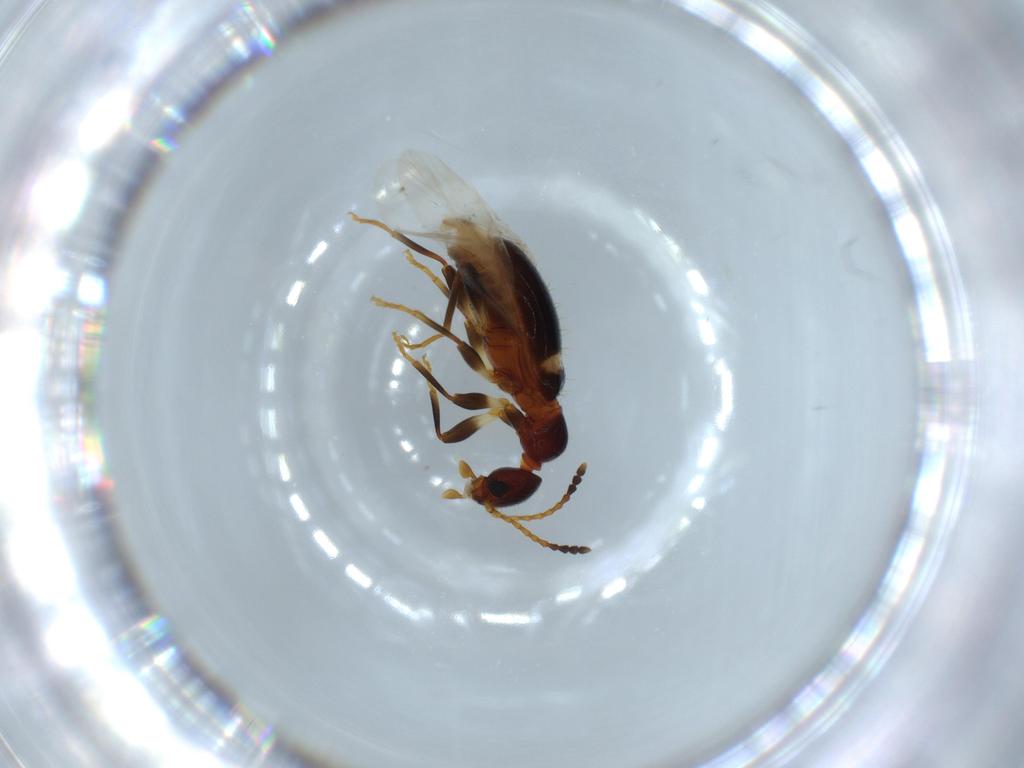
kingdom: Animalia
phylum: Arthropoda
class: Insecta
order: Coleoptera
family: Anthicidae
